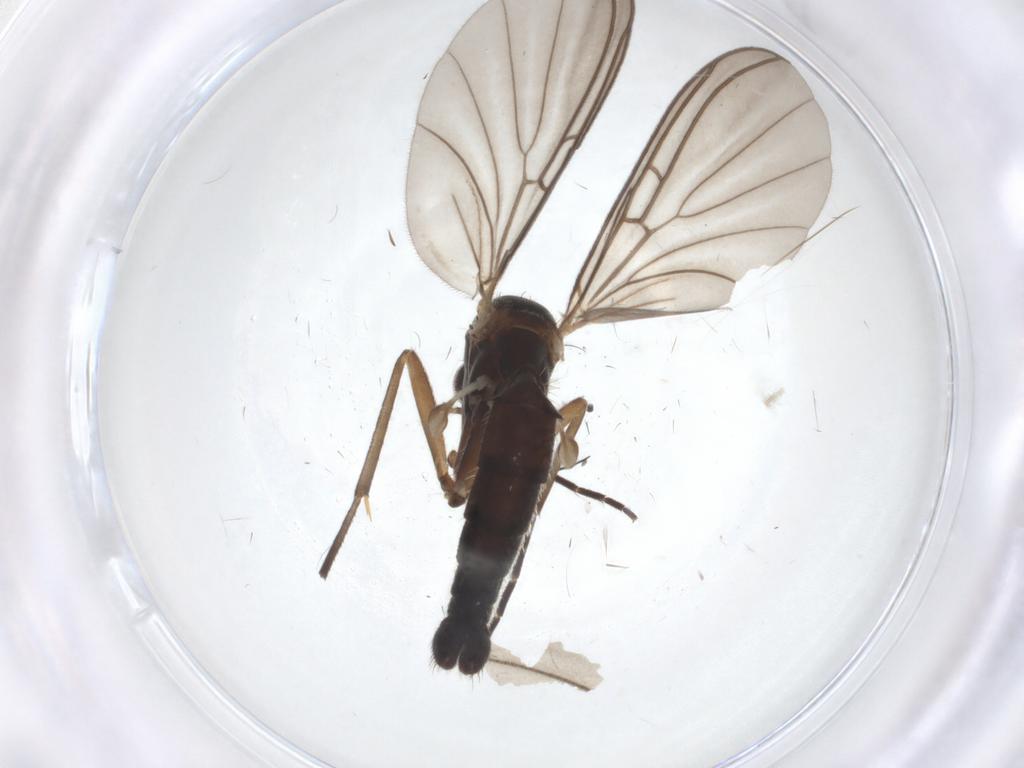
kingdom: Animalia
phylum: Arthropoda
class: Insecta
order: Diptera
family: Mycetophilidae
